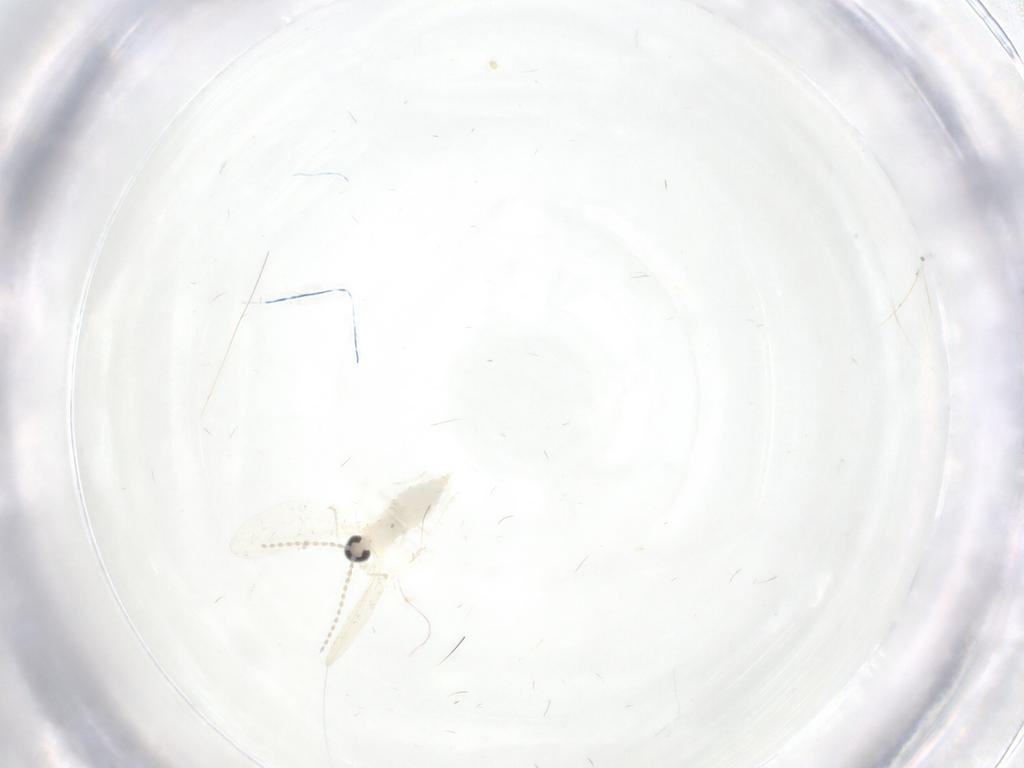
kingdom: Animalia
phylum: Arthropoda
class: Insecta
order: Diptera
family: Cecidomyiidae
